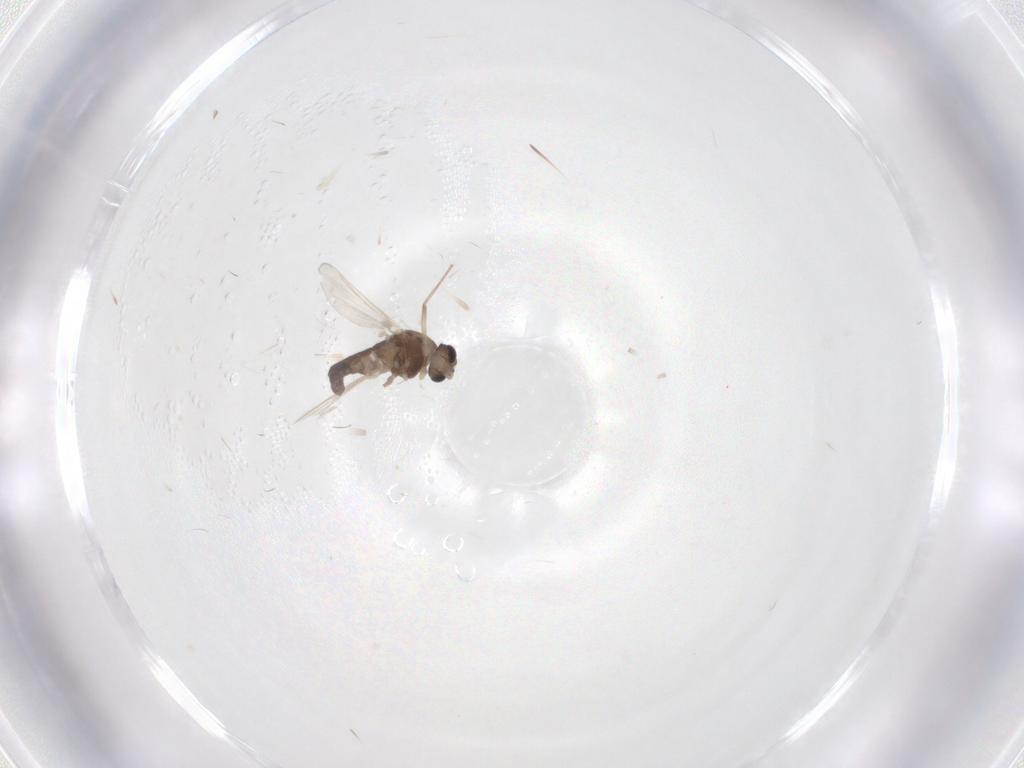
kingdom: Animalia
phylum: Arthropoda
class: Insecta
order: Diptera
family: Chironomidae
